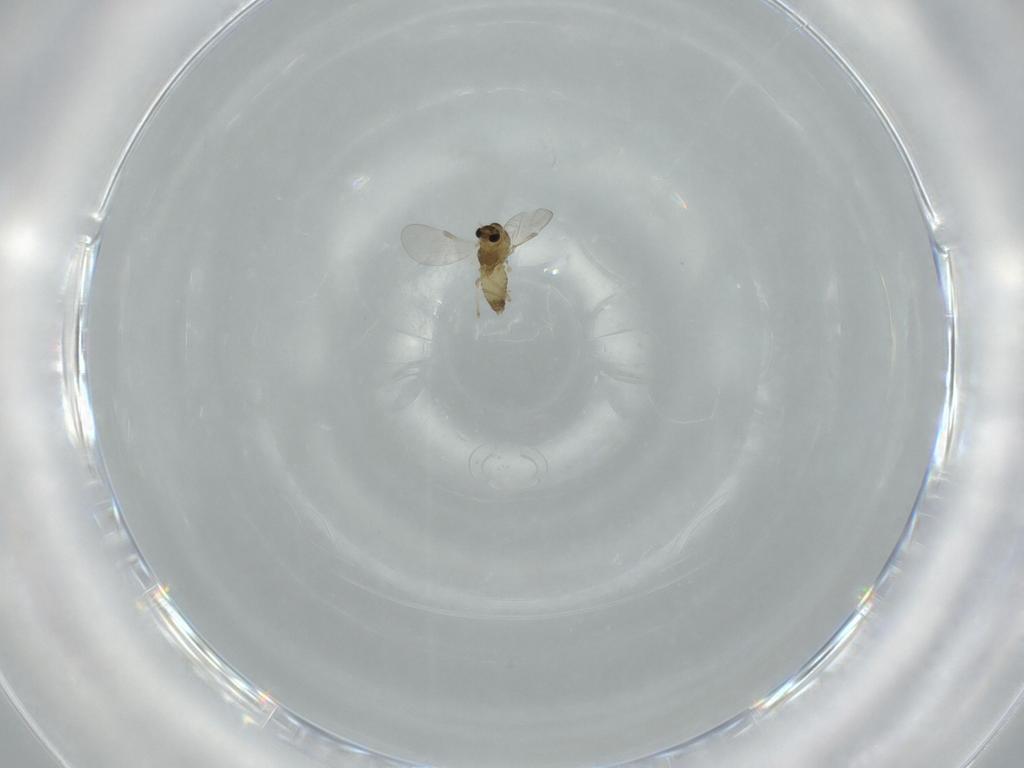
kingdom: Animalia
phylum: Arthropoda
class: Insecta
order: Diptera
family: Chironomidae
